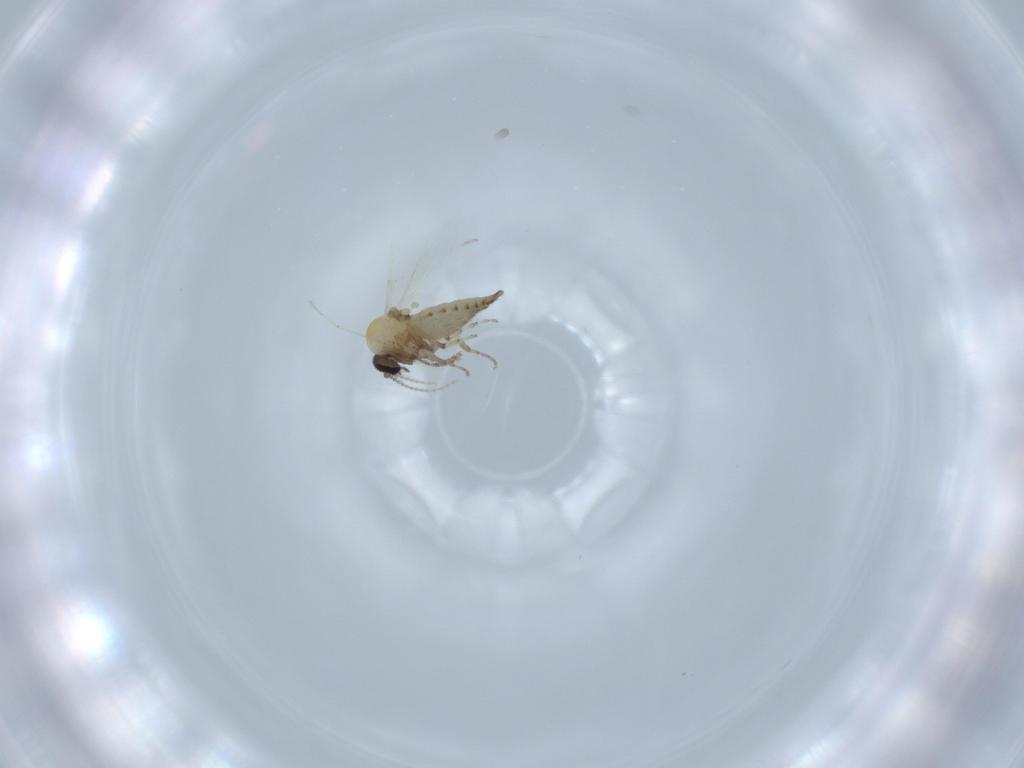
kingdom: Animalia
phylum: Arthropoda
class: Insecta
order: Diptera
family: Ceratopogonidae
